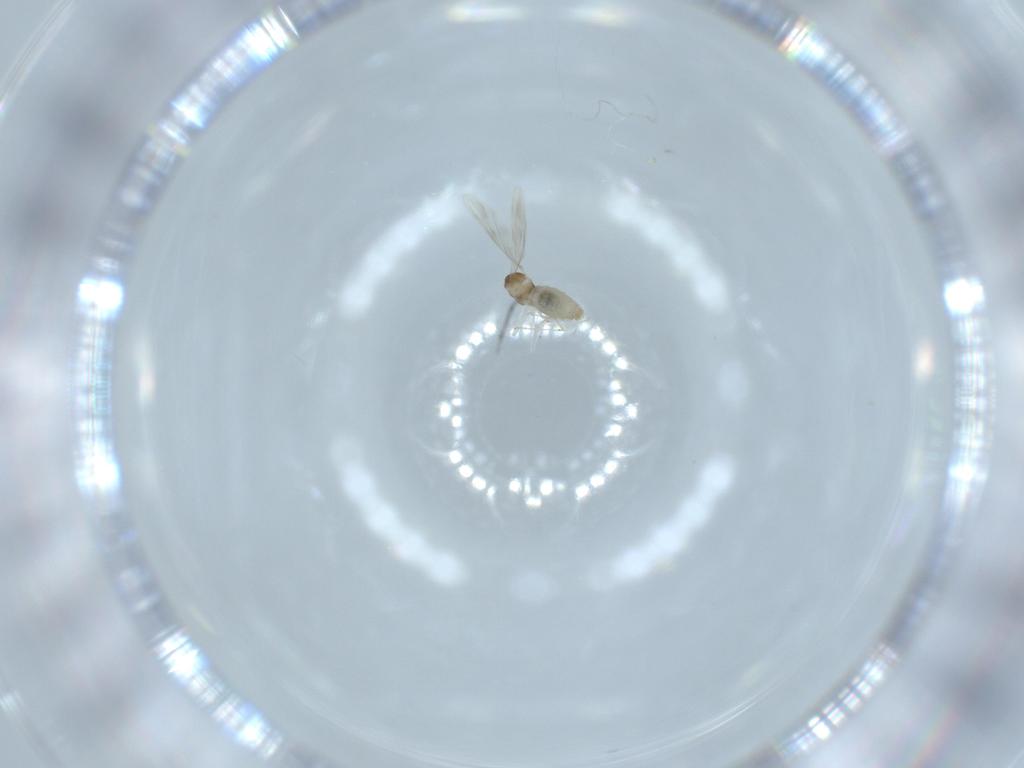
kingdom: Animalia
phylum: Arthropoda
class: Insecta
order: Diptera
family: Cecidomyiidae
